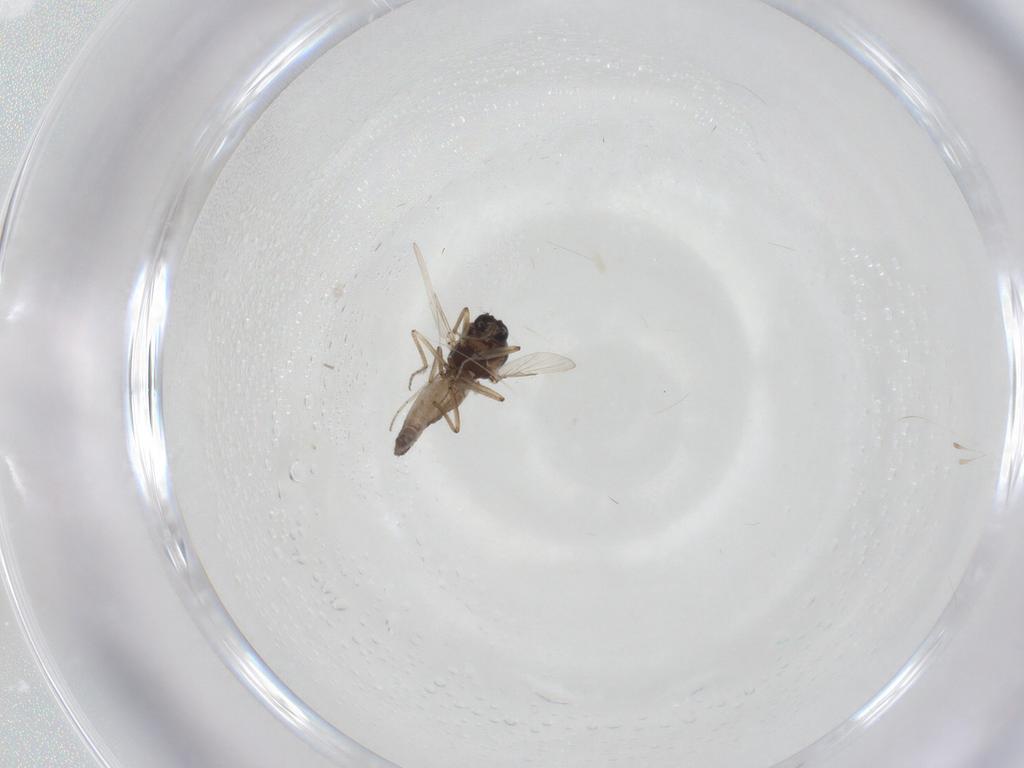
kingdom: Animalia
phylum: Arthropoda
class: Insecta
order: Diptera
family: Ceratopogonidae
